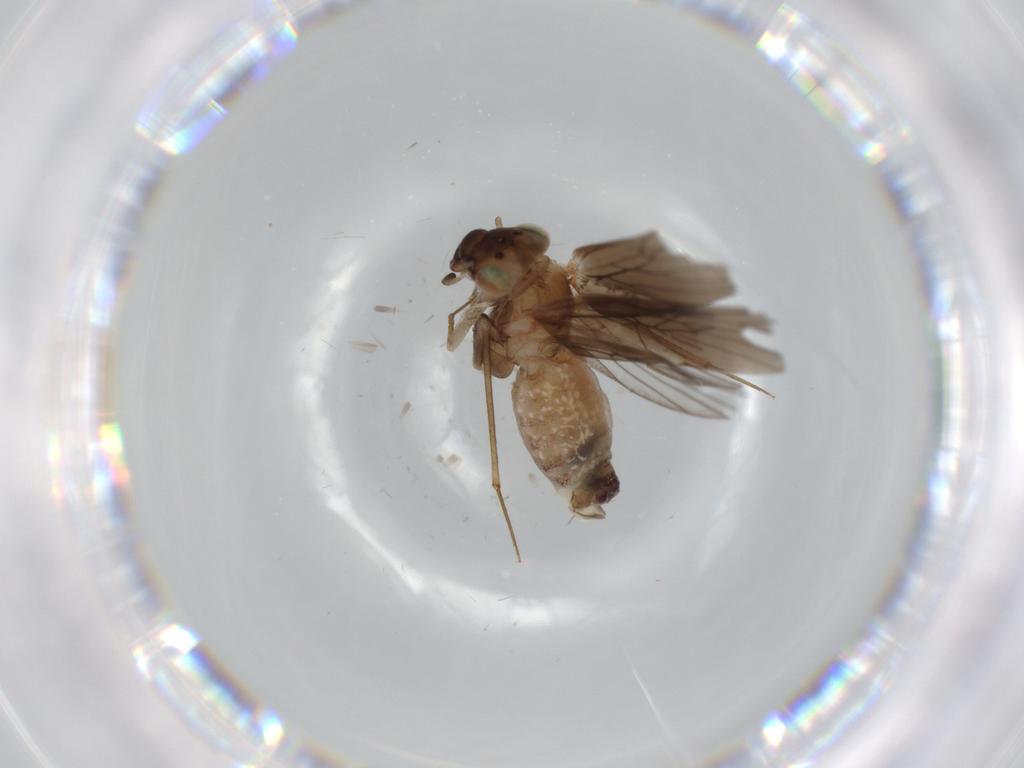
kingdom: Animalia
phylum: Arthropoda
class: Insecta
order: Psocodea
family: Lepidopsocidae
